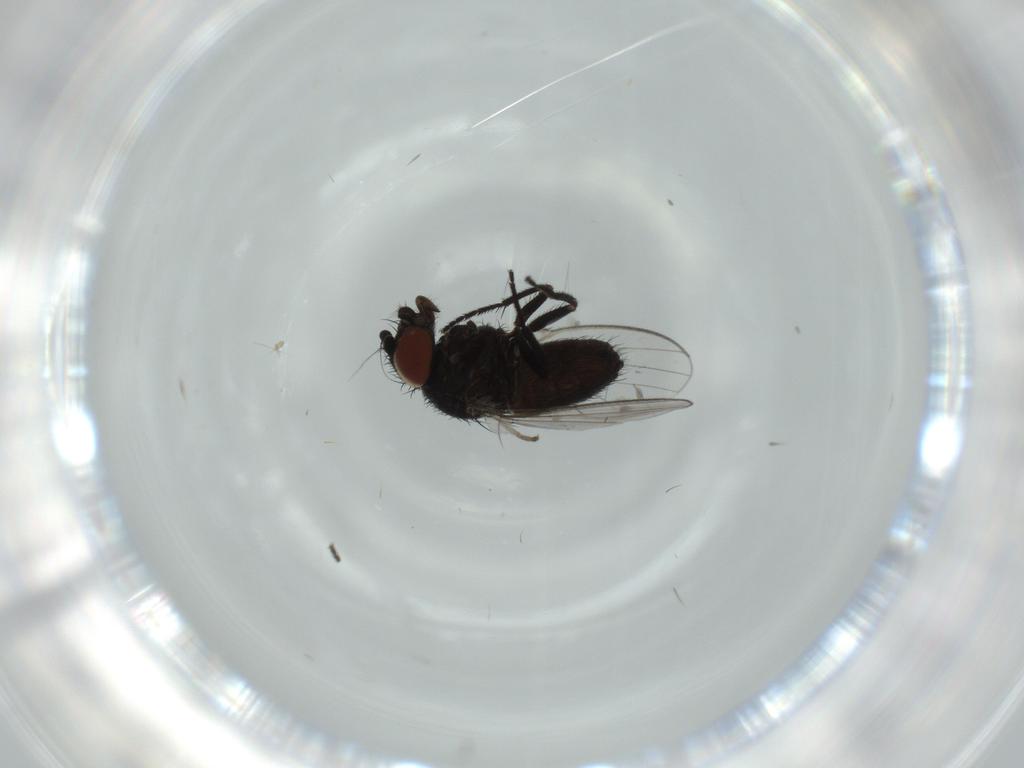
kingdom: Animalia
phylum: Arthropoda
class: Insecta
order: Diptera
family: Milichiidae
